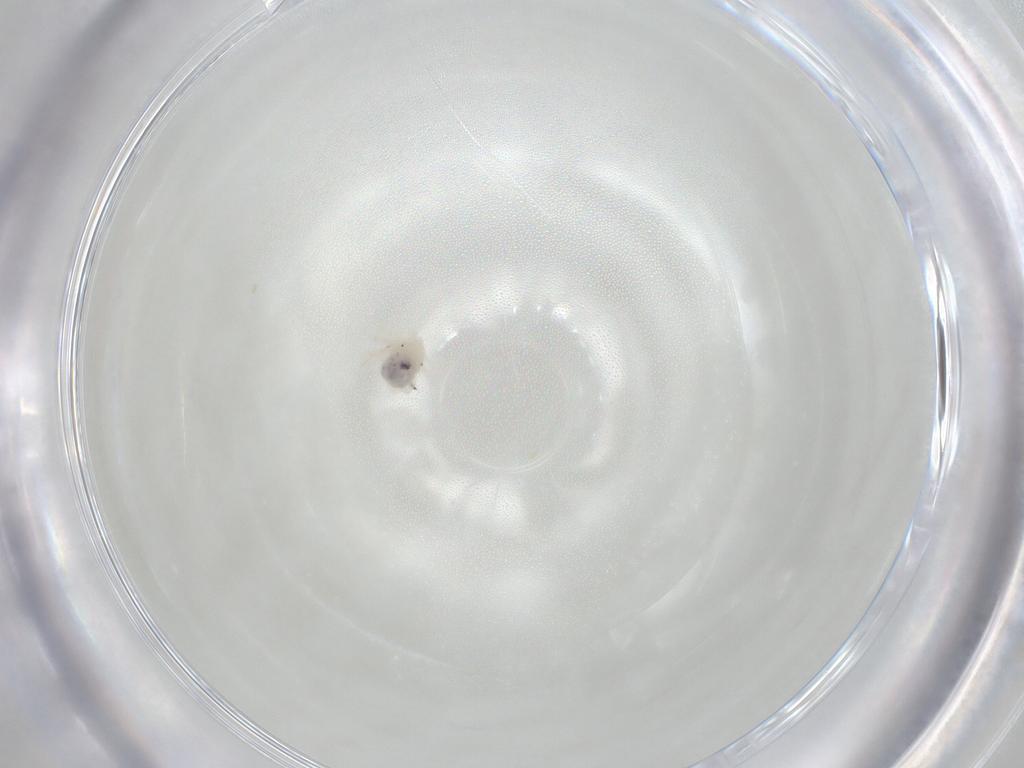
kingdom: Animalia
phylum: Arthropoda
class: Arachnida
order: Trombidiformes
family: Anystidae
